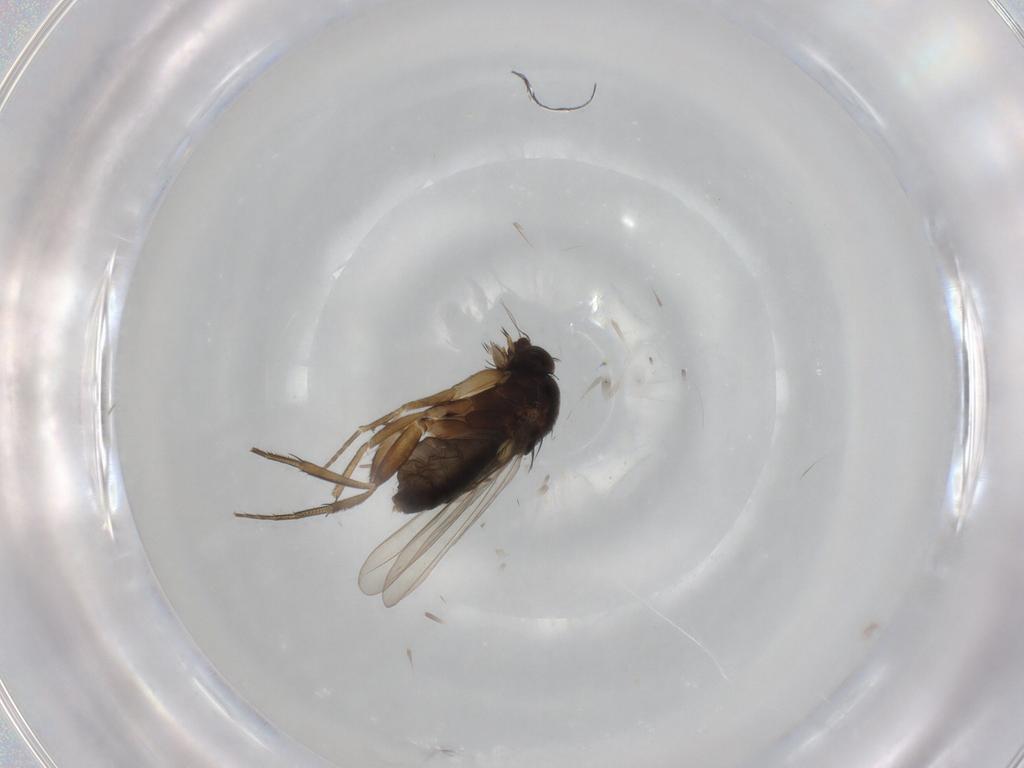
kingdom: Animalia
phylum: Arthropoda
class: Insecta
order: Diptera
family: Phoridae
